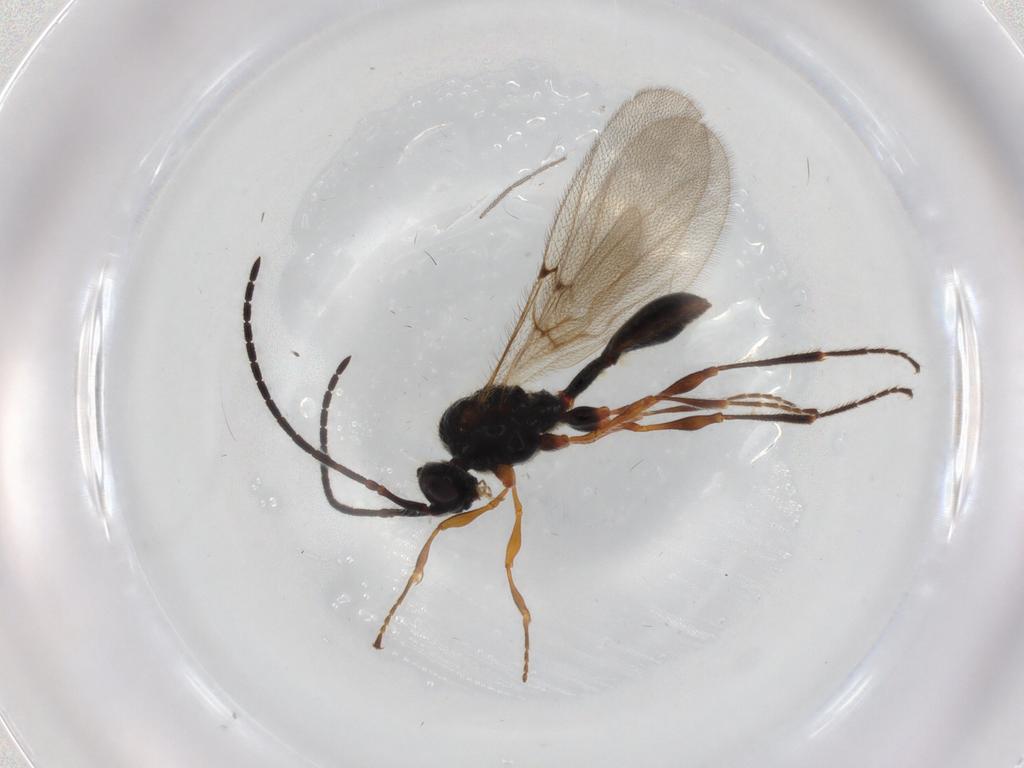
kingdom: Animalia
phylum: Arthropoda
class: Insecta
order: Hymenoptera
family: Diapriidae
